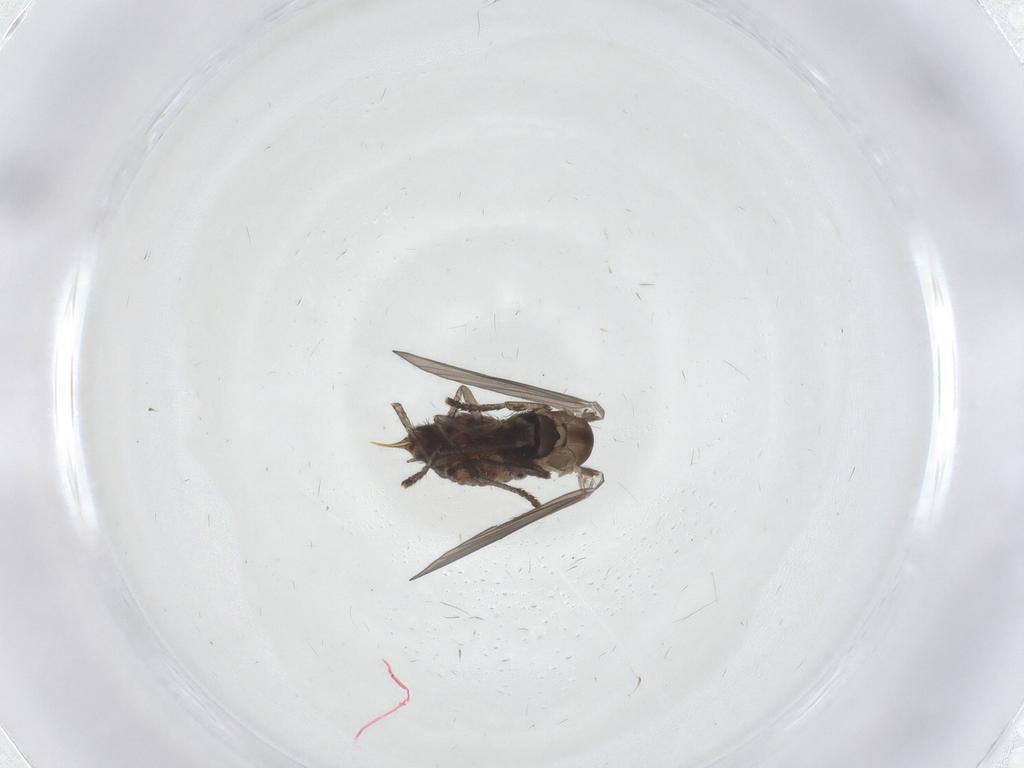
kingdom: Animalia
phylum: Arthropoda
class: Insecta
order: Diptera
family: Psychodidae
